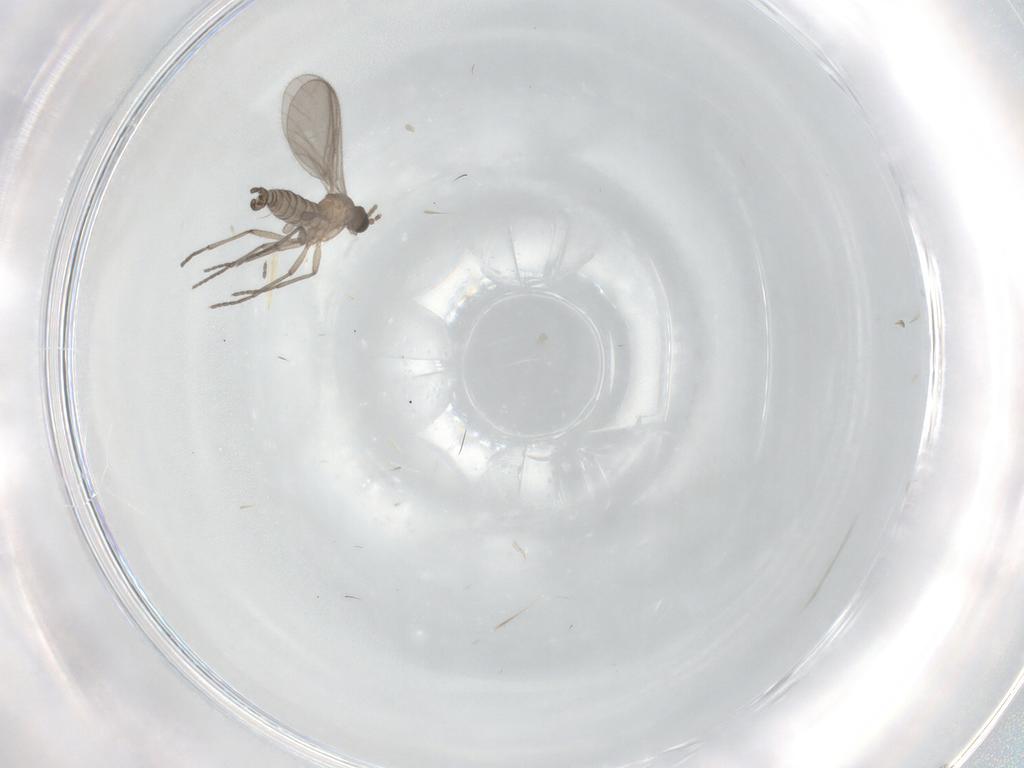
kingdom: Animalia
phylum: Arthropoda
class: Insecta
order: Diptera
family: Sciaridae
